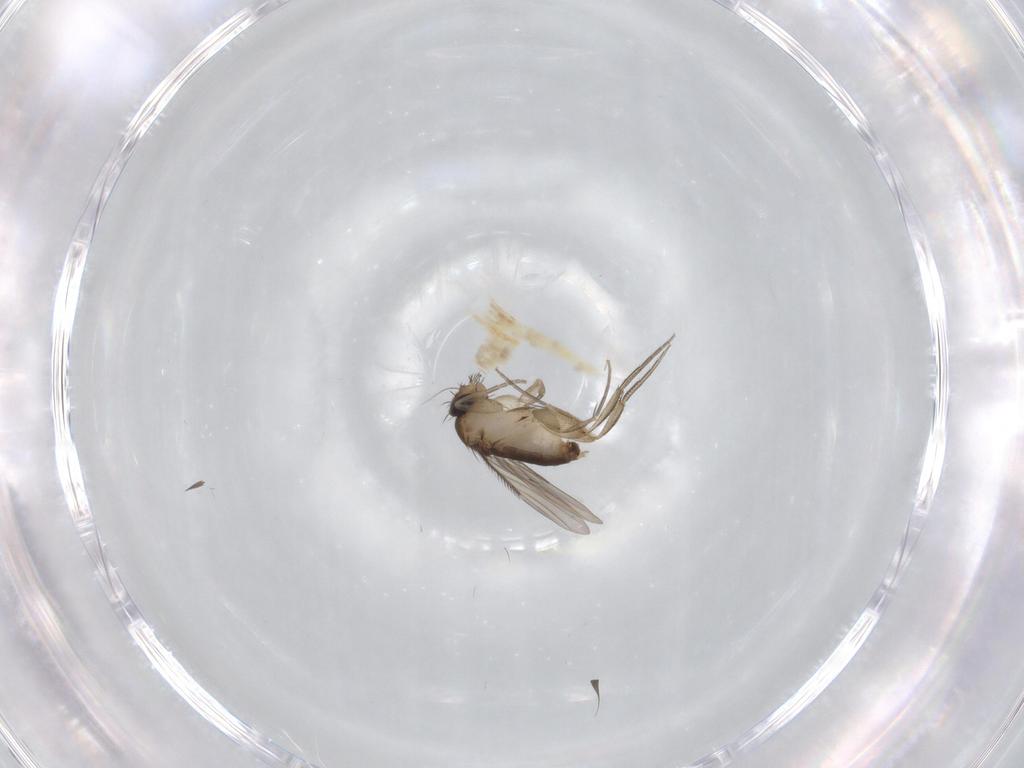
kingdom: Animalia
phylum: Arthropoda
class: Insecta
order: Diptera
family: Phoridae
